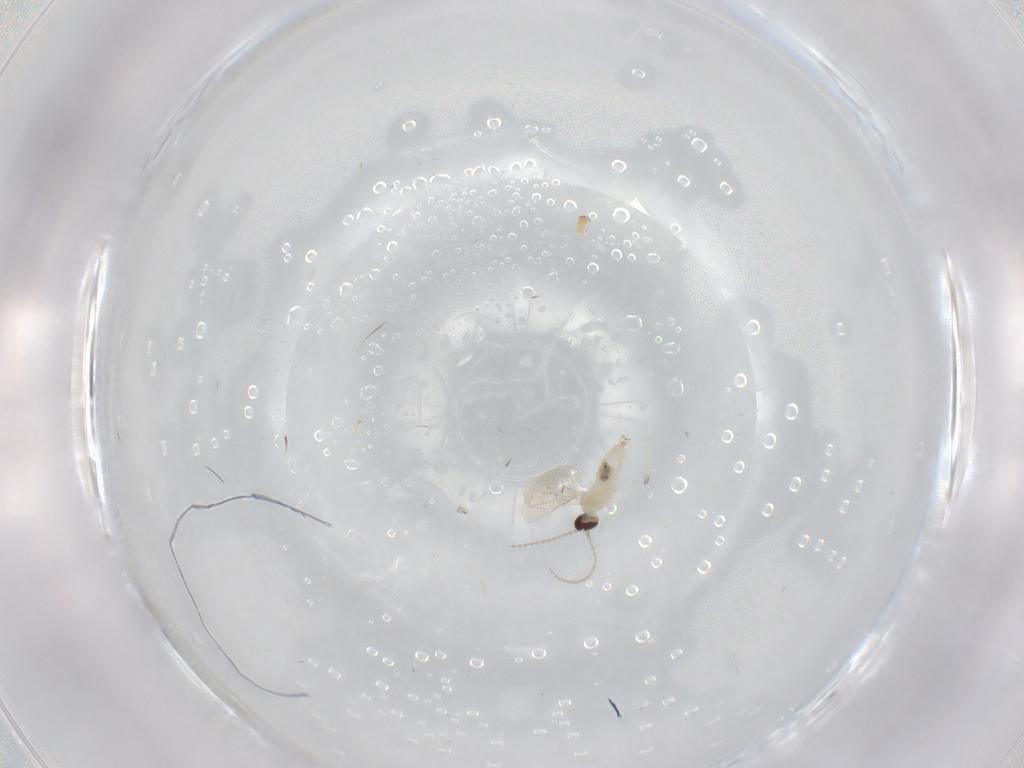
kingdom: Animalia
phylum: Arthropoda
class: Insecta
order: Diptera
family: Cecidomyiidae
